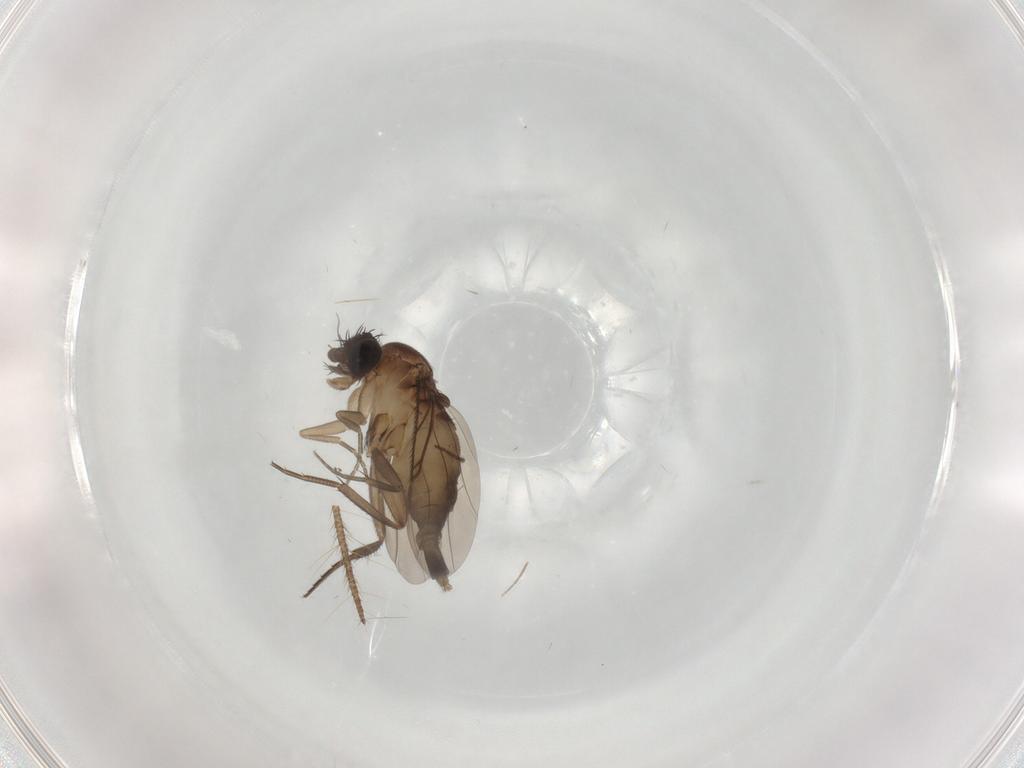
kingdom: Animalia
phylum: Arthropoda
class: Insecta
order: Diptera
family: Phoridae
